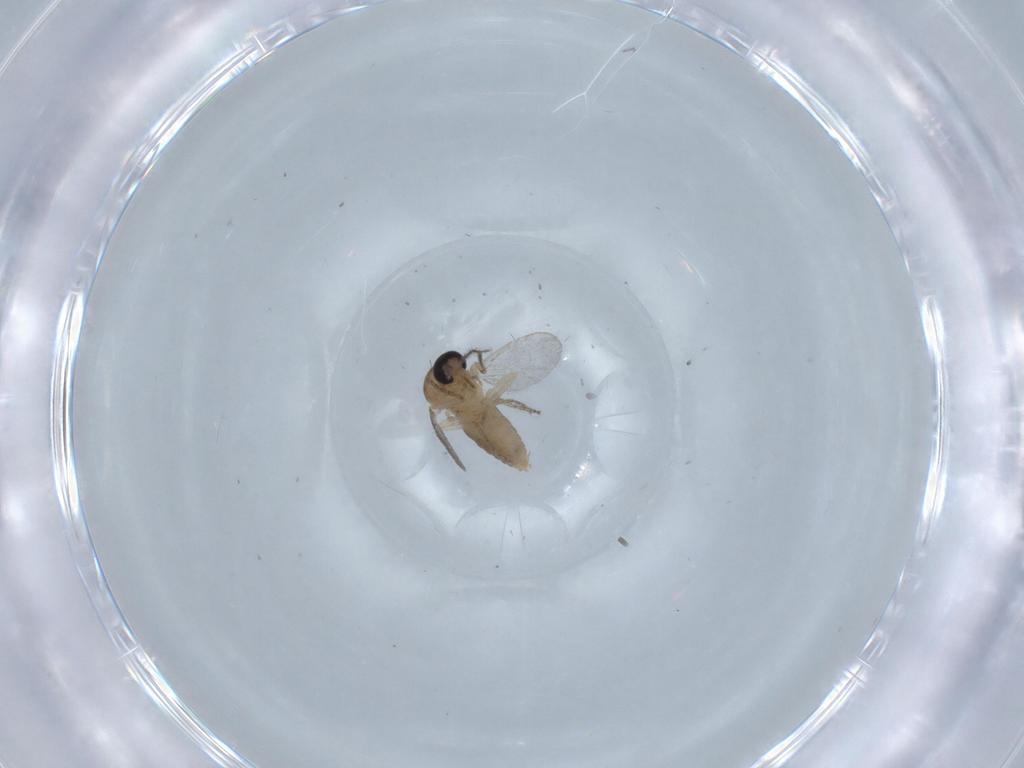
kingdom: Animalia
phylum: Arthropoda
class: Insecta
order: Diptera
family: Ceratopogonidae
